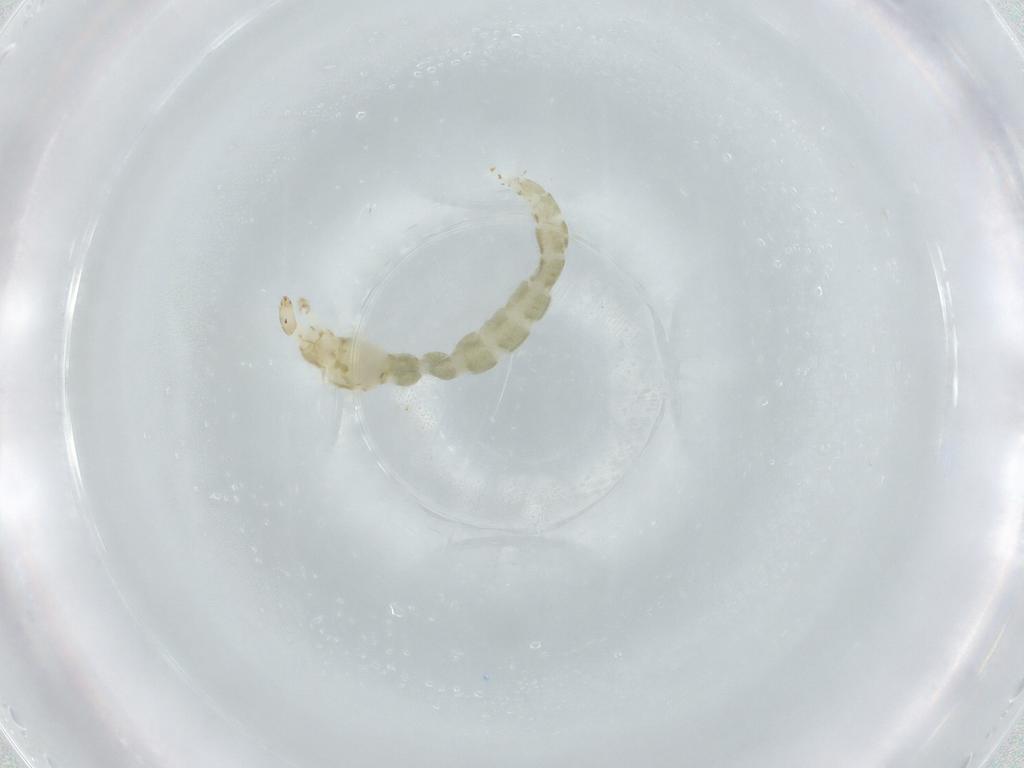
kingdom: Animalia
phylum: Arthropoda
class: Insecta
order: Diptera
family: Chironomidae
